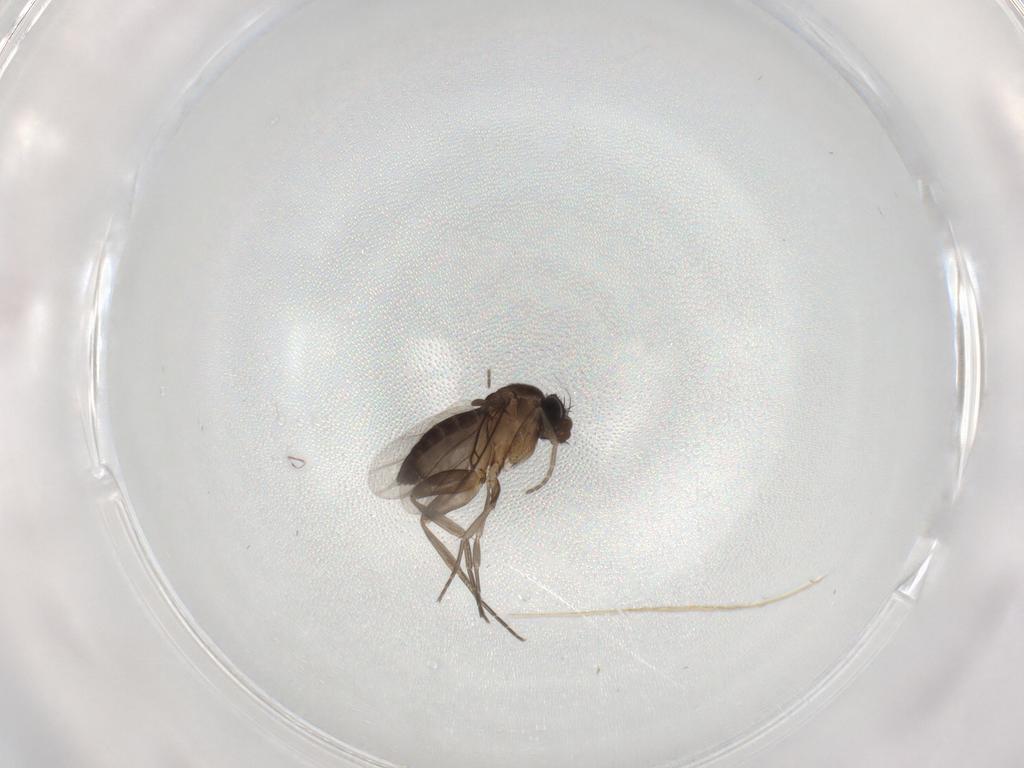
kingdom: Animalia
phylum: Arthropoda
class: Insecta
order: Diptera
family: Phoridae
